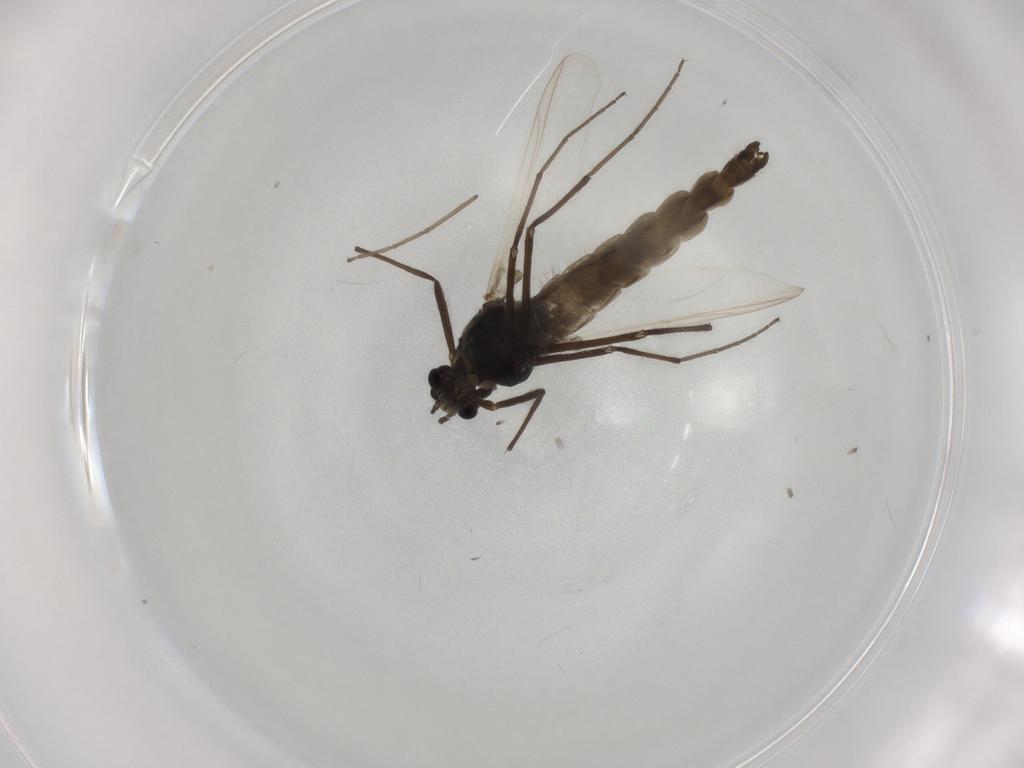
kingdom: Animalia
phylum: Arthropoda
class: Insecta
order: Diptera
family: Chironomidae
